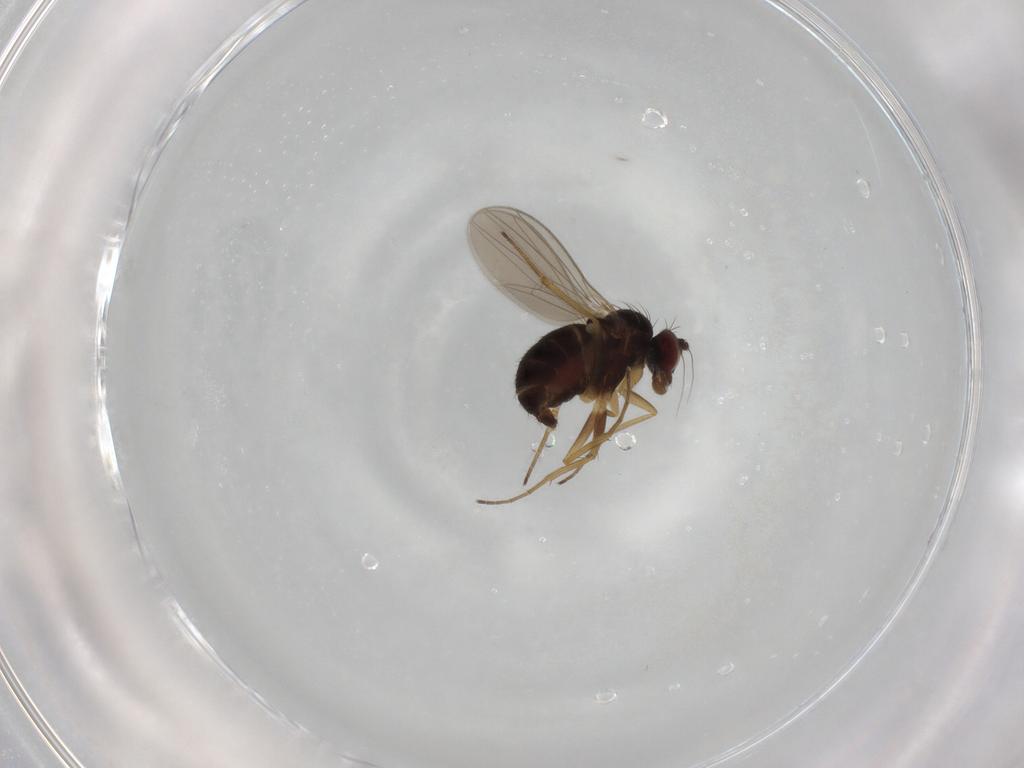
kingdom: Animalia
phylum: Arthropoda
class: Insecta
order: Diptera
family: Dolichopodidae
